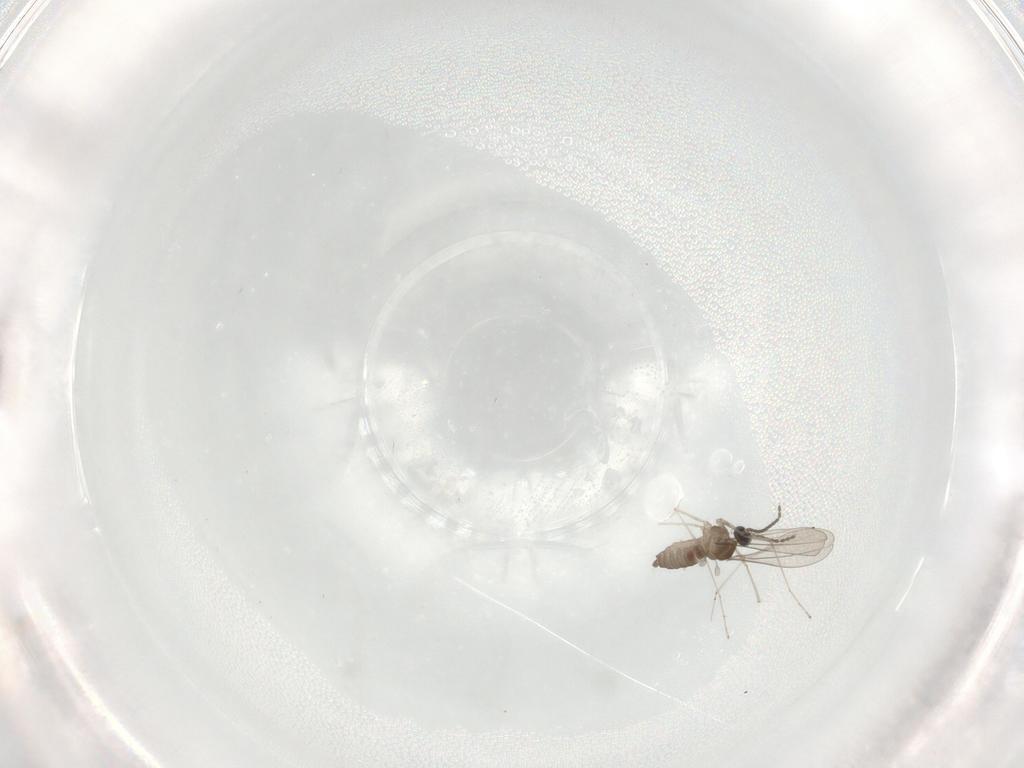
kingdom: Animalia
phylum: Arthropoda
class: Insecta
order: Diptera
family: Cecidomyiidae
